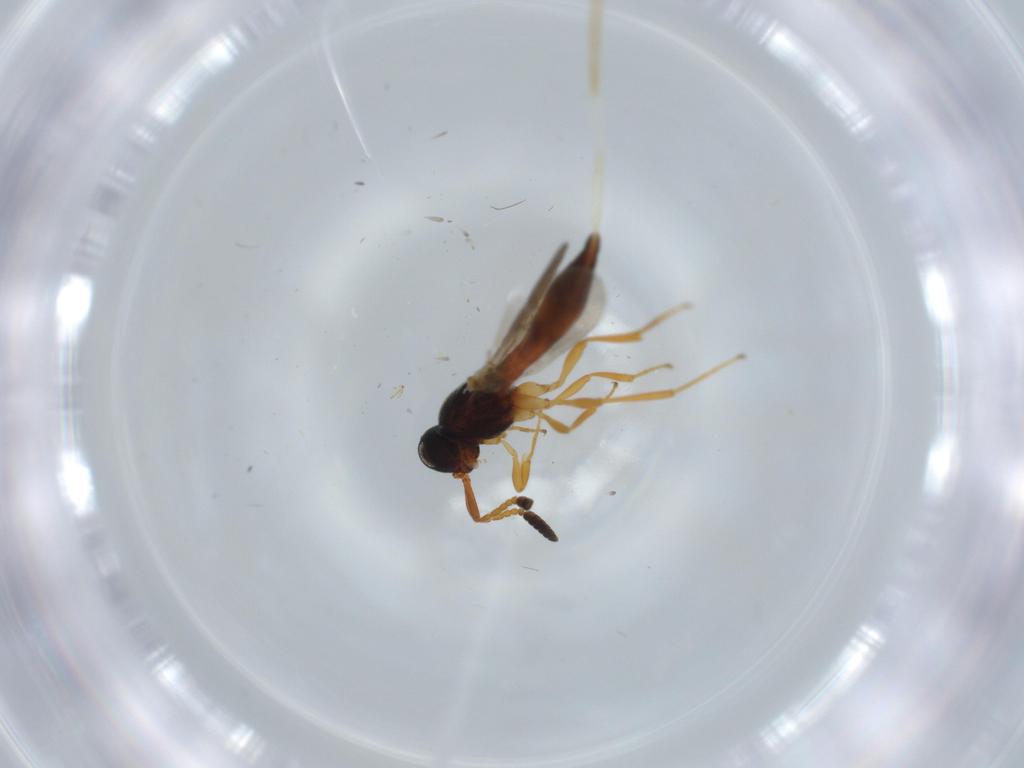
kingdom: Animalia
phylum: Arthropoda
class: Insecta
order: Hymenoptera
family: Scelionidae
